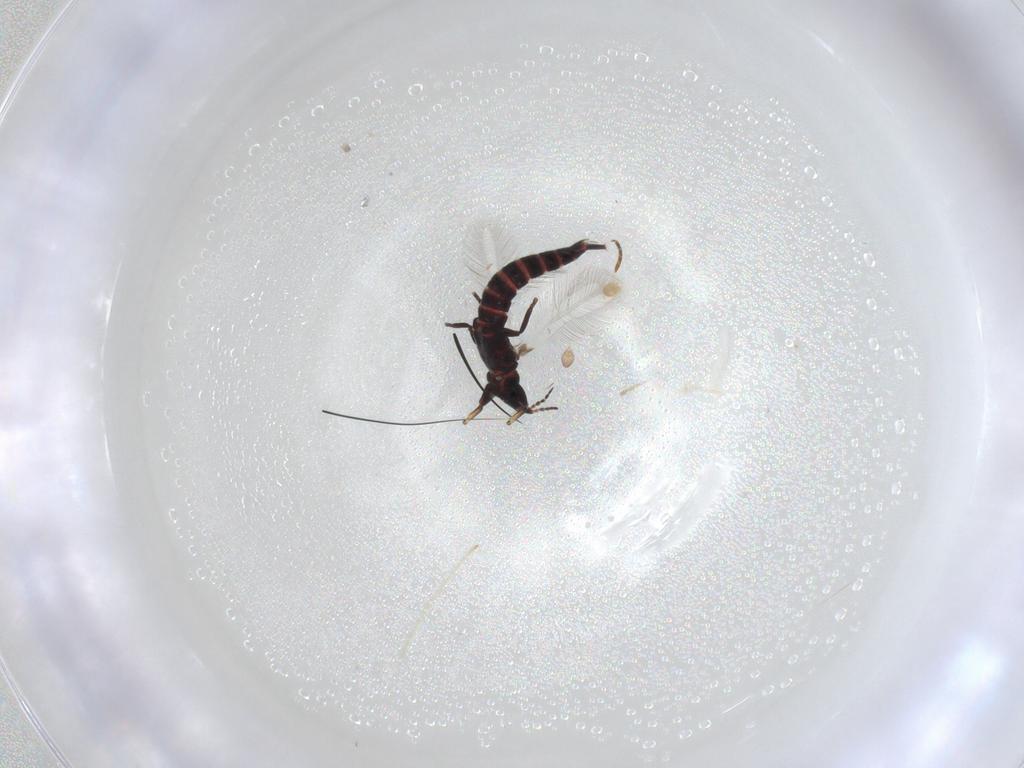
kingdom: Animalia
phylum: Arthropoda
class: Insecta
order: Thysanoptera
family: Phlaeothripidae
